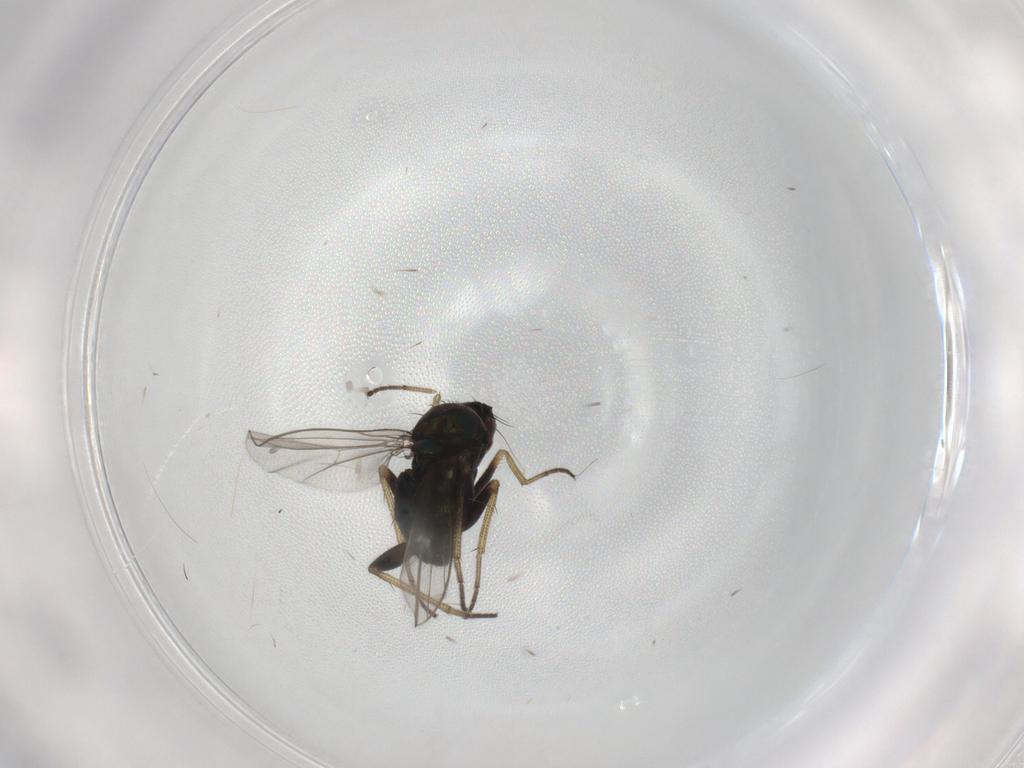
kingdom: Animalia
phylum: Arthropoda
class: Insecta
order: Diptera
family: Dolichopodidae
